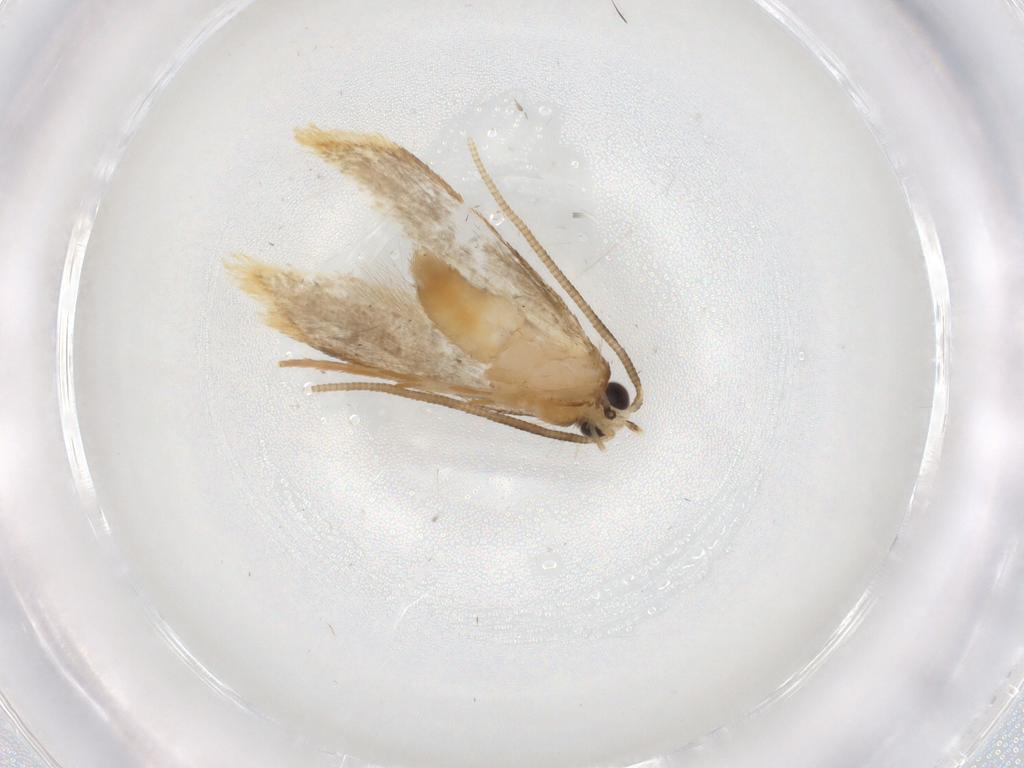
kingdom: Animalia
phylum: Arthropoda
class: Insecta
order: Lepidoptera
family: Tineidae
